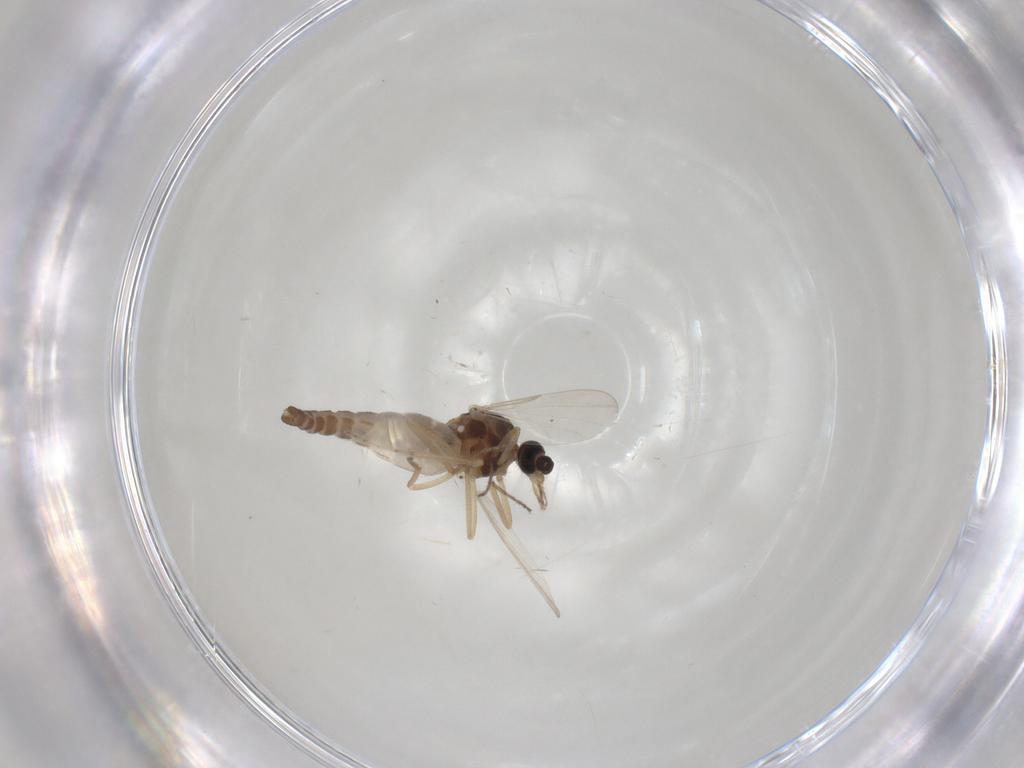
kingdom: Animalia
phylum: Arthropoda
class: Insecta
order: Diptera
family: Ceratopogonidae
